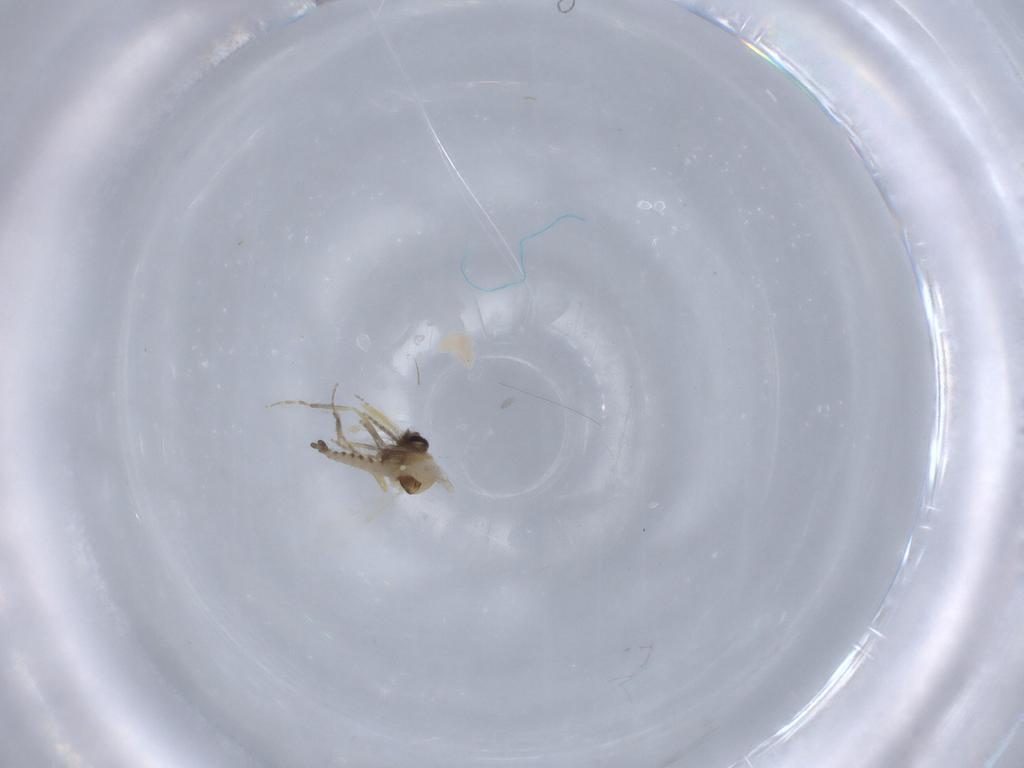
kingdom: Animalia
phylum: Arthropoda
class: Insecta
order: Diptera
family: Ceratopogonidae
